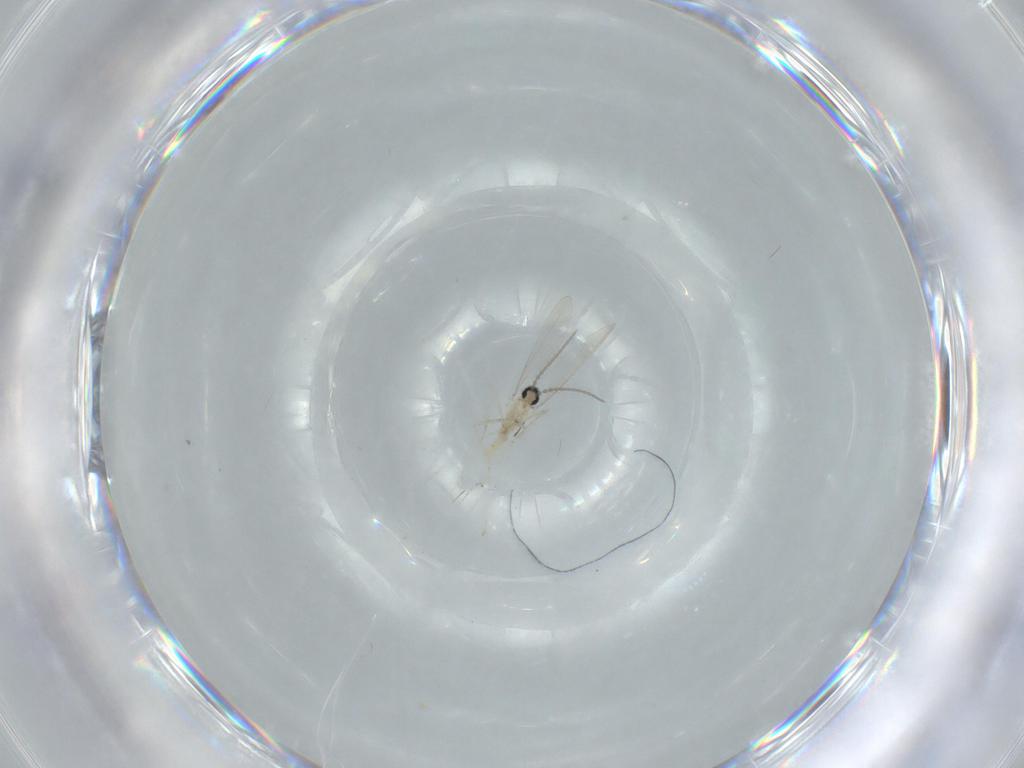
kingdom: Animalia
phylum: Arthropoda
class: Insecta
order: Diptera
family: Cecidomyiidae
